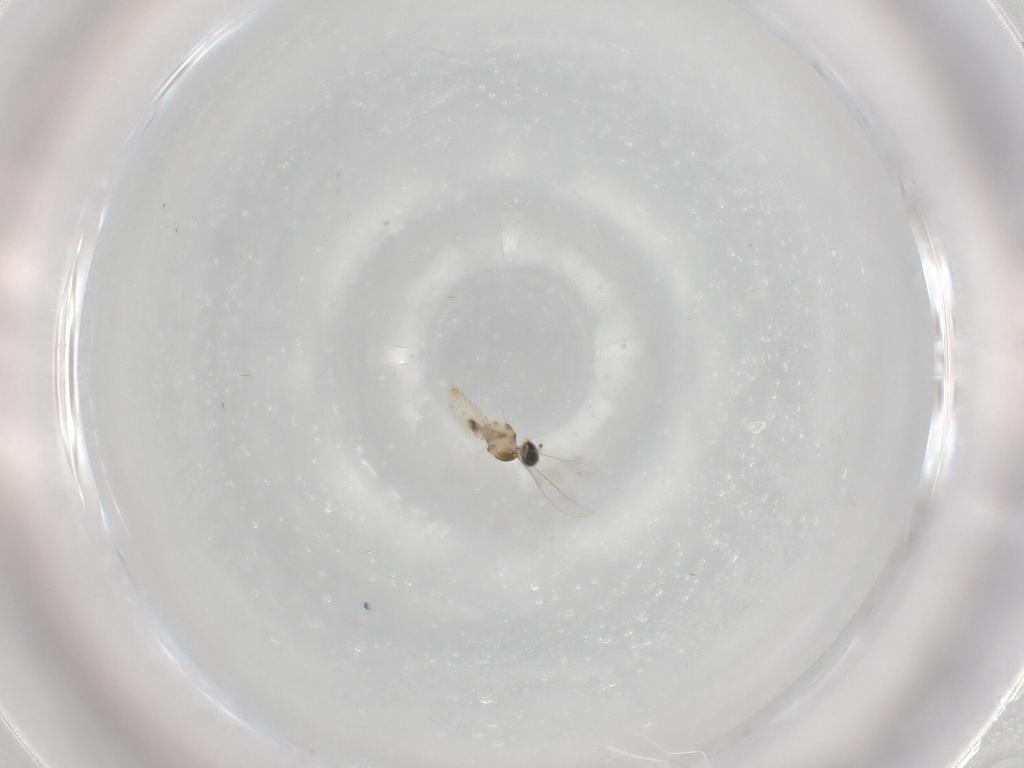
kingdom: Animalia
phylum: Arthropoda
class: Insecta
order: Diptera
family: Cecidomyiidae
